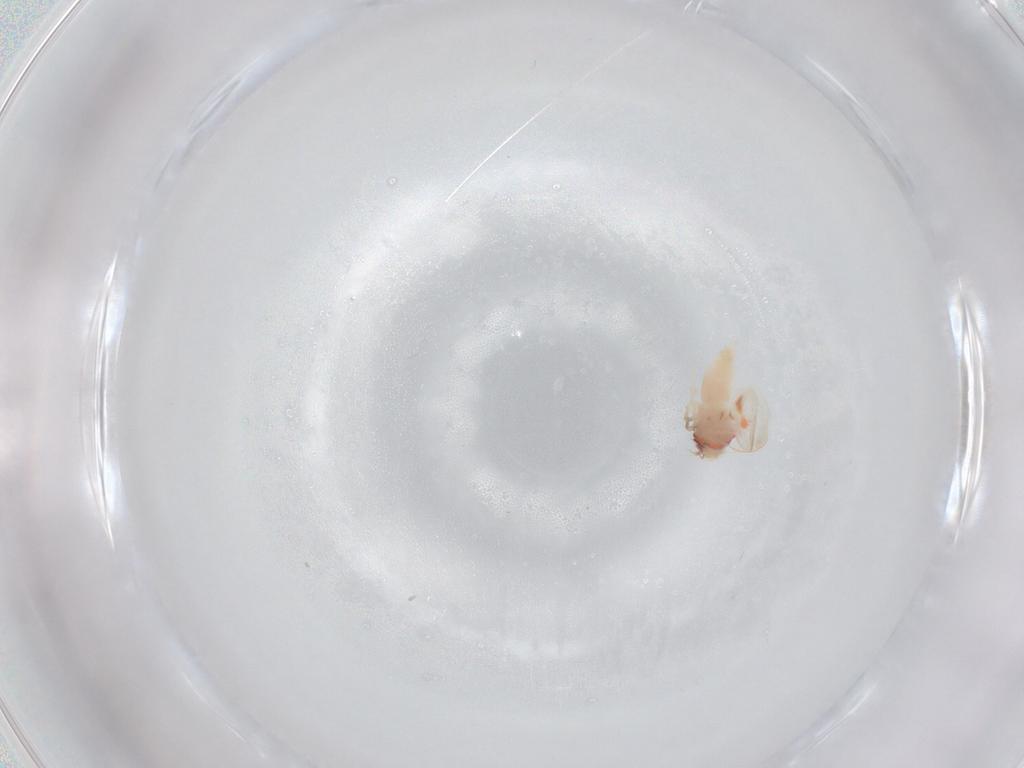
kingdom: Animalia
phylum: Arthropoda
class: Insecta
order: Hemiptera
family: Aleyrodidae
